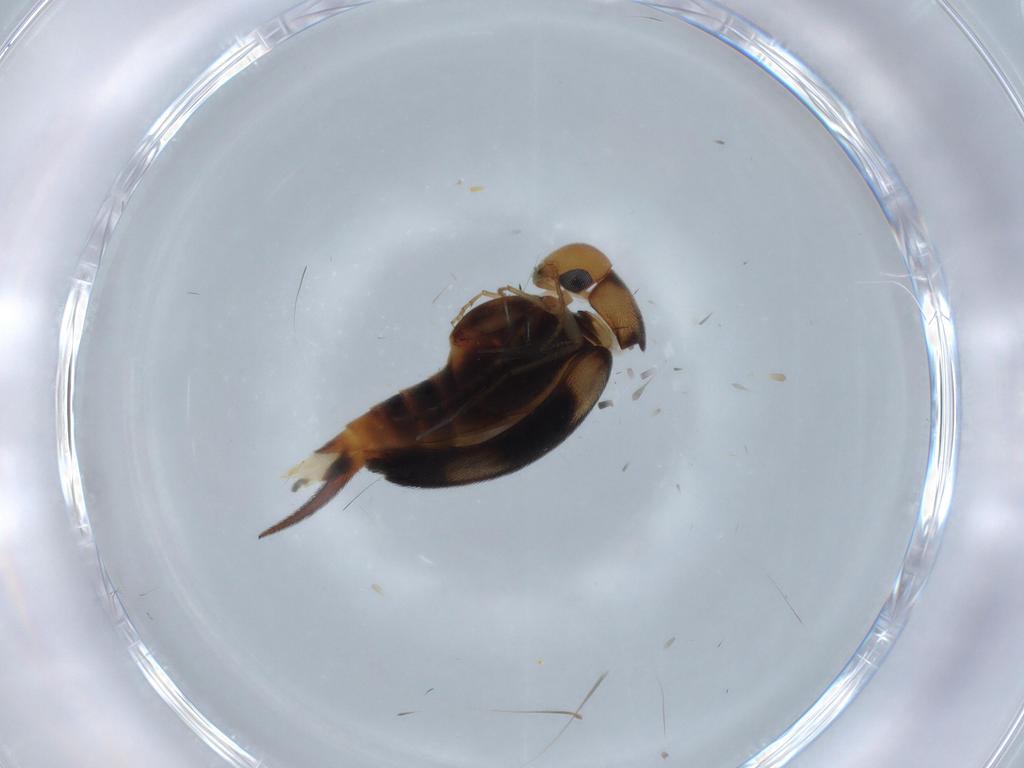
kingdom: Animalia
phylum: Arthropoda
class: Insecta
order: Coleoptera
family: Mordellidae
